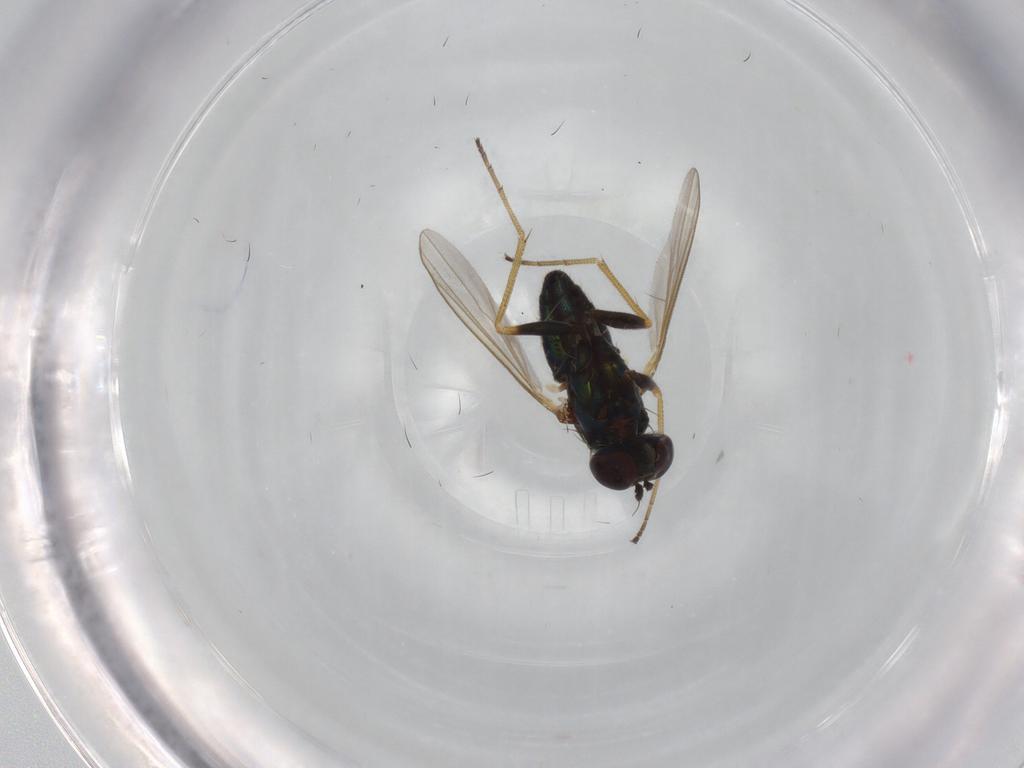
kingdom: Animalia
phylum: Arthropoda
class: Insecta
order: Diptera
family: Dolichopodidae
